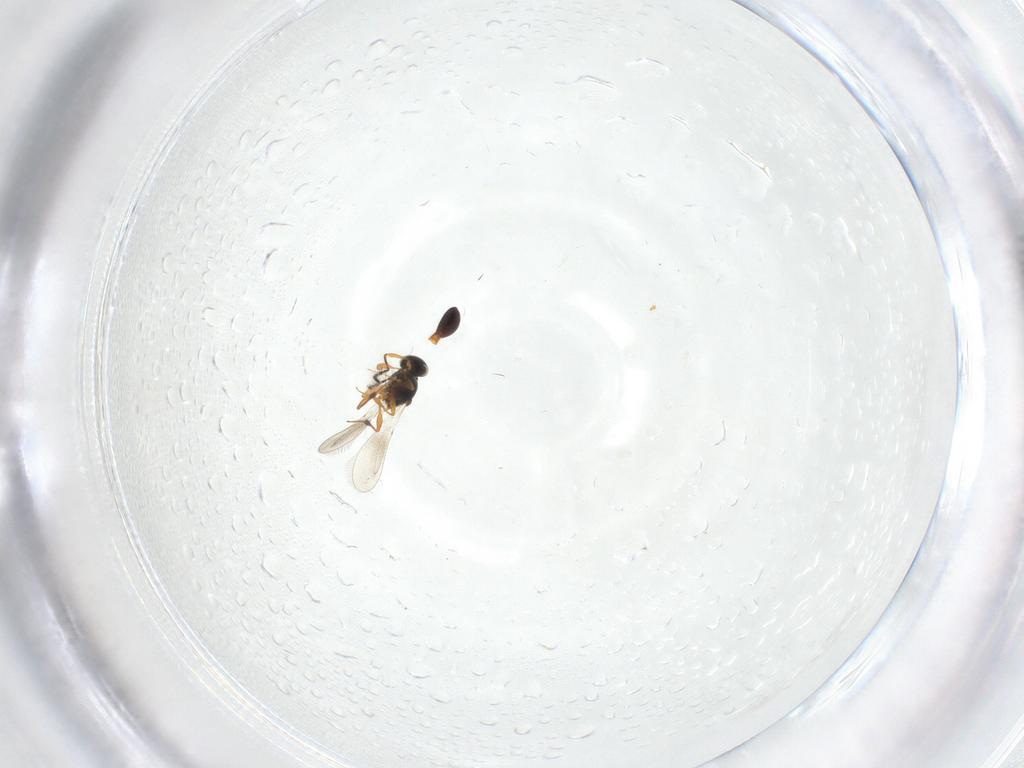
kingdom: Animalia
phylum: Arthropoda
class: Insecta
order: Hymenoptera
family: Platygastridae
